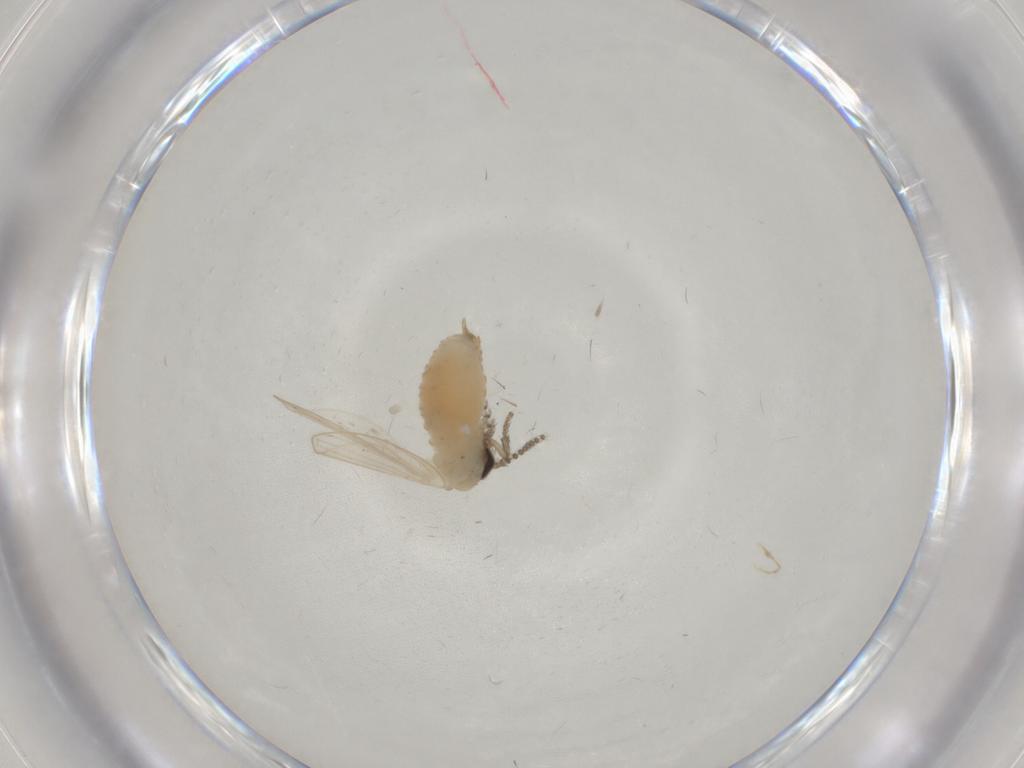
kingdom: Animalia
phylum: Arthropoda
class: Insecta
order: Diptera
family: Psychodidae
